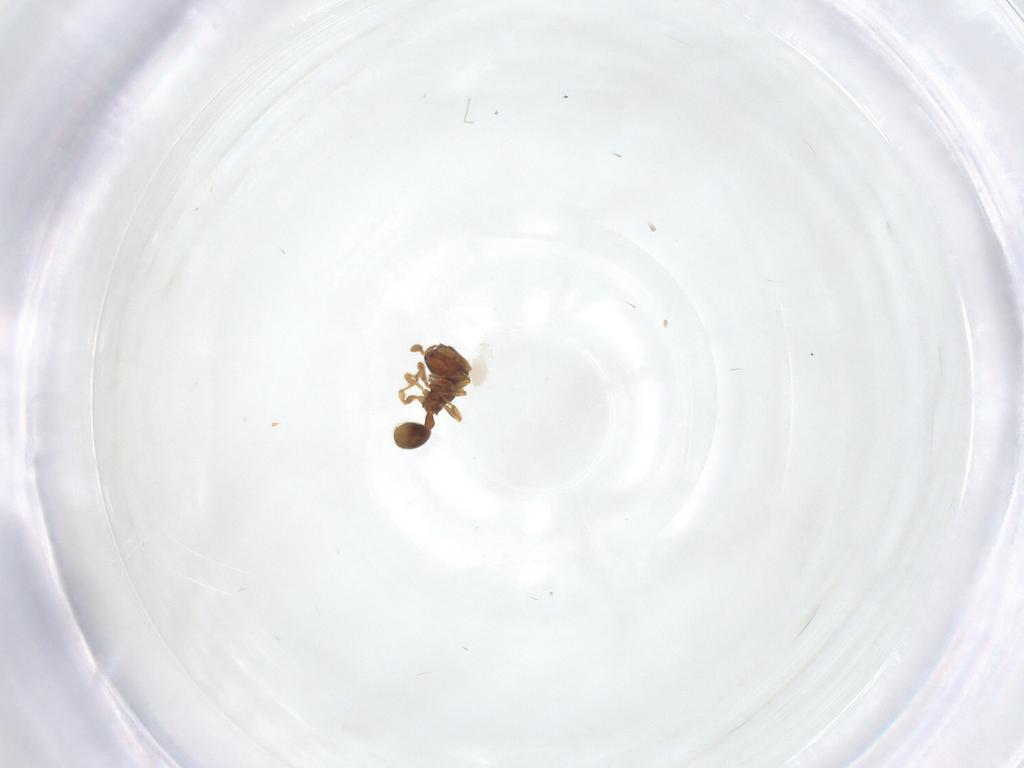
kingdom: Animalia
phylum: Arthropoda
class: Insecta
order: Hymenoptera
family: Formicidae
